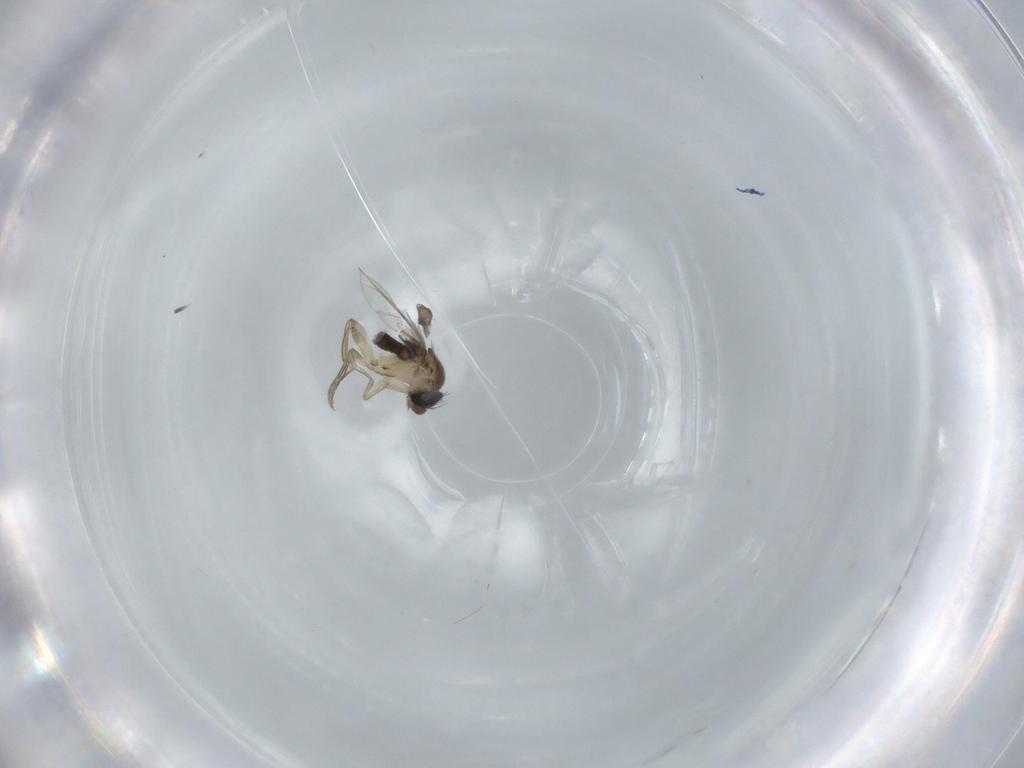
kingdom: Animalia
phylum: Arthropoda
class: Insecta
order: Diptera
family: Phoridae
